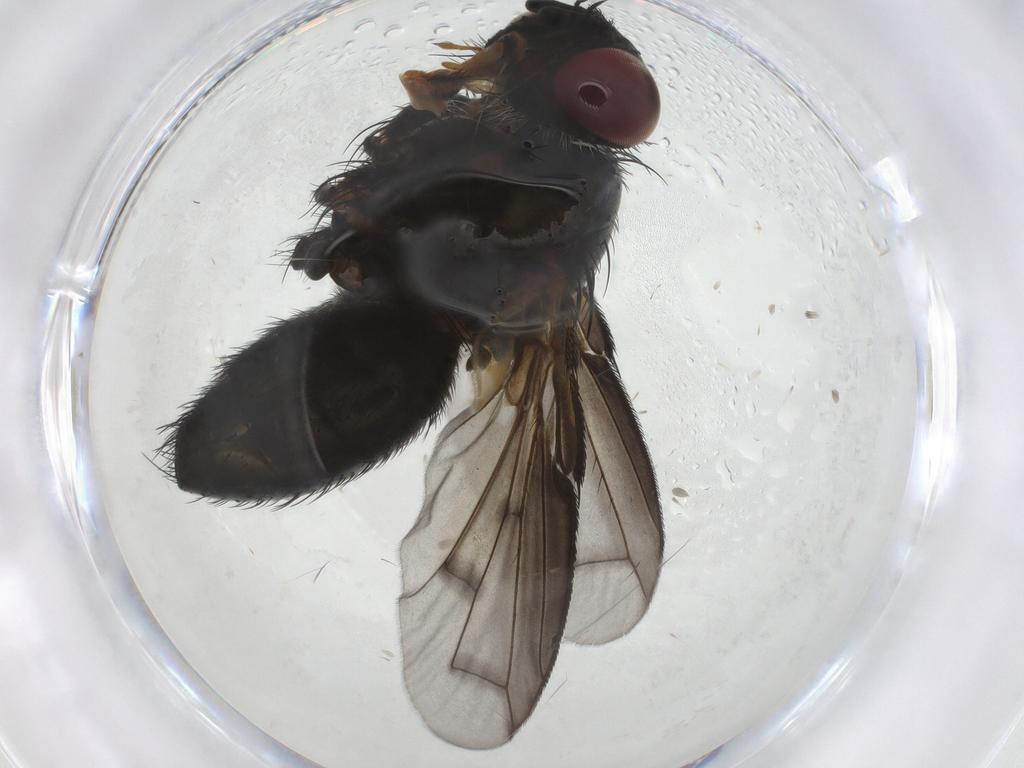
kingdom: Animalia
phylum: Arthropoda
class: Insecta
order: Diptera
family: Tachinidae
